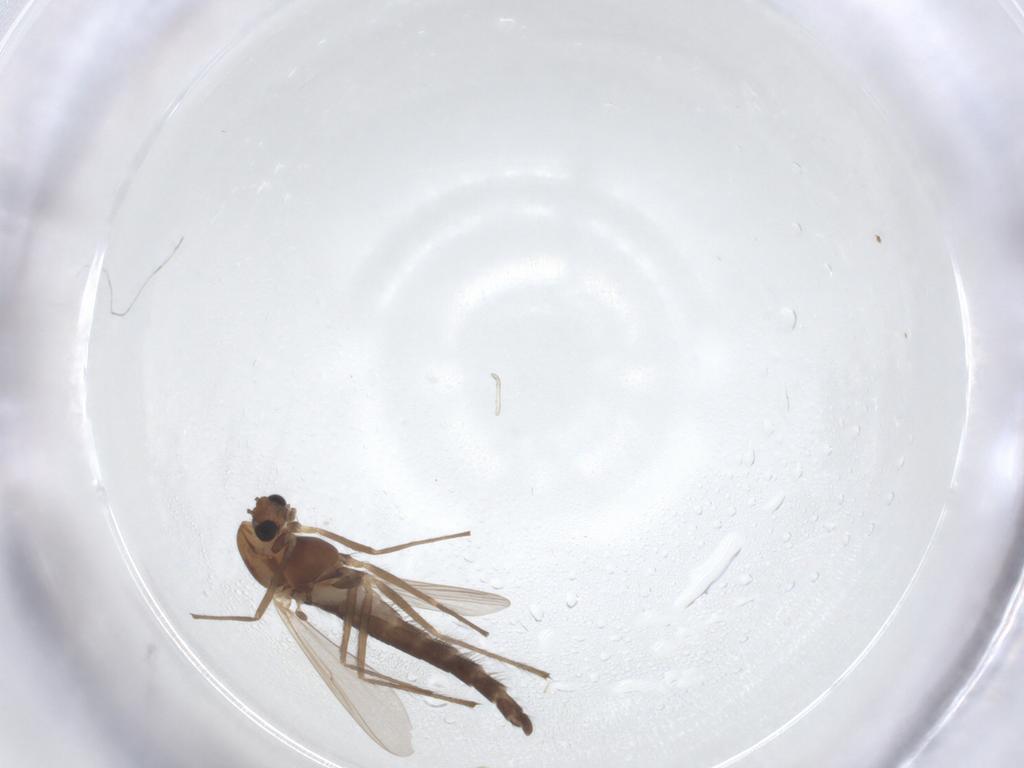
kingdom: Animalia
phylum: Arthropoda
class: Insecta
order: Diptera
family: Chironomidae
